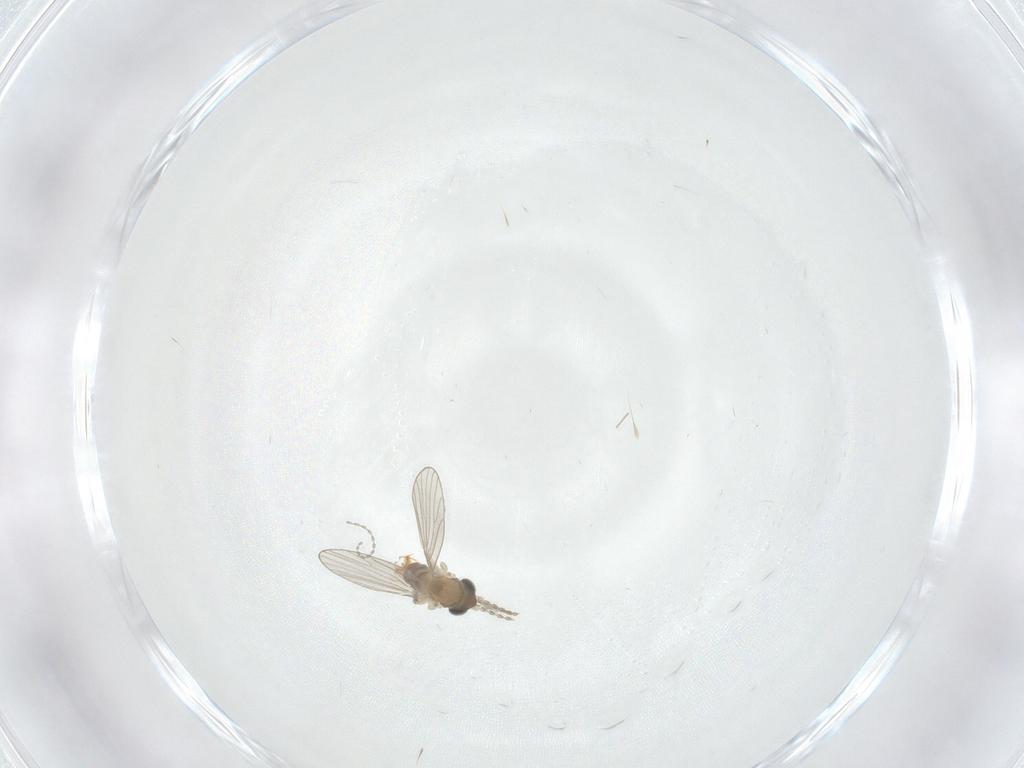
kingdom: Animalia
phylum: Arthropoda
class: Insecta
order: Diptera
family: Cecidomyiidae
